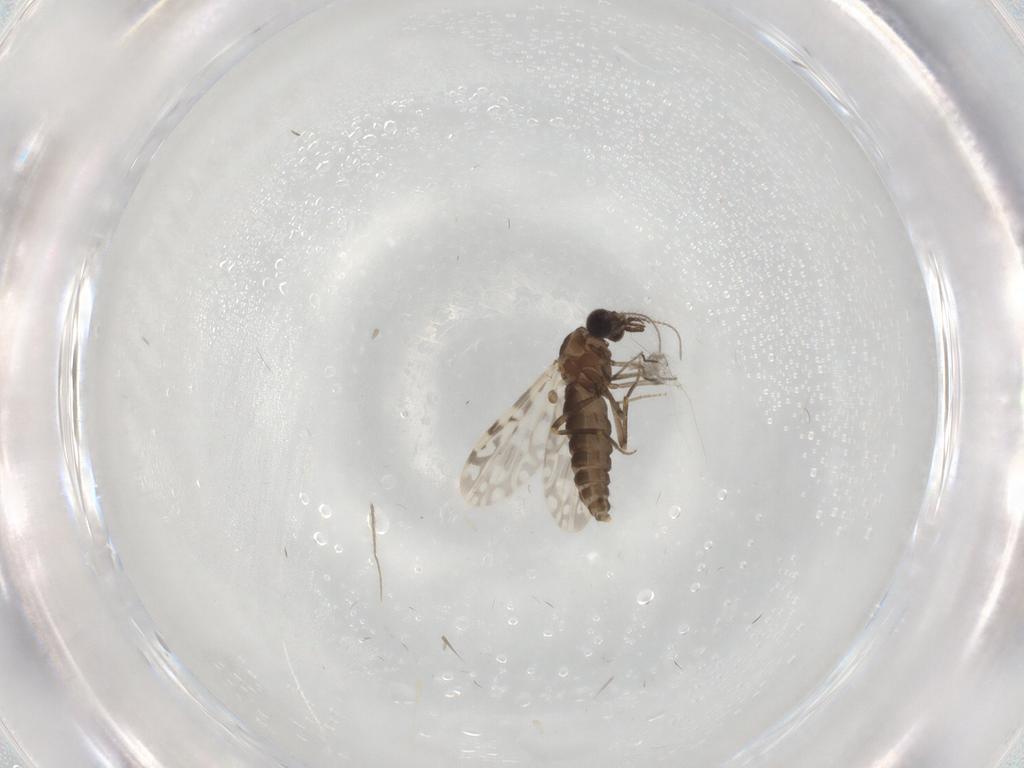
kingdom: Animalia
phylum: Arthropoda
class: Insecta
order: Diptera
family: Ceratopogonidae
